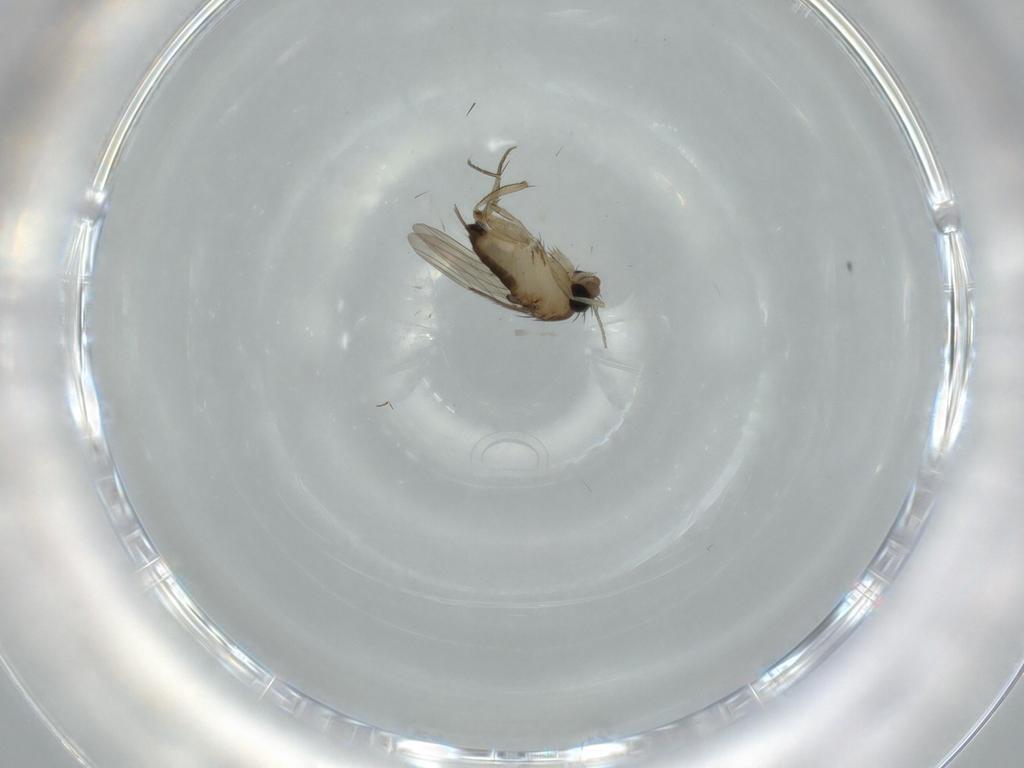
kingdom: Animalia
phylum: Arthropoda
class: Insecta
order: Diptera
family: Phoridae
